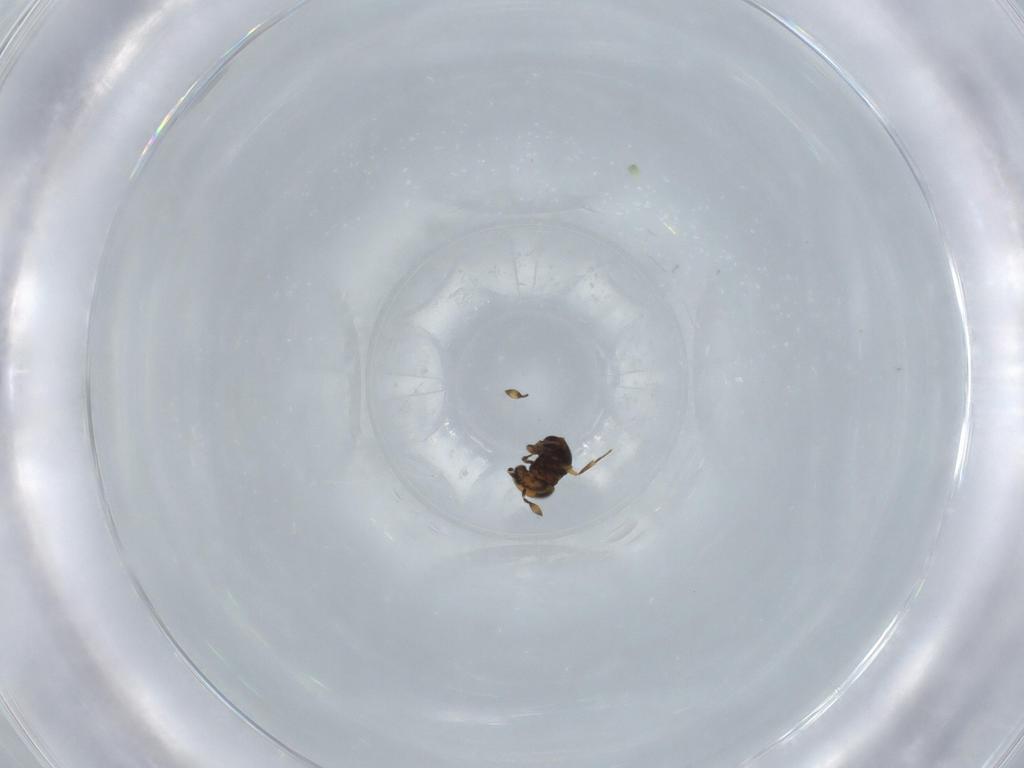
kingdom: Animalia
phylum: Arthropoda
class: Insecta
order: Hymenoptera
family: Scelionidae
